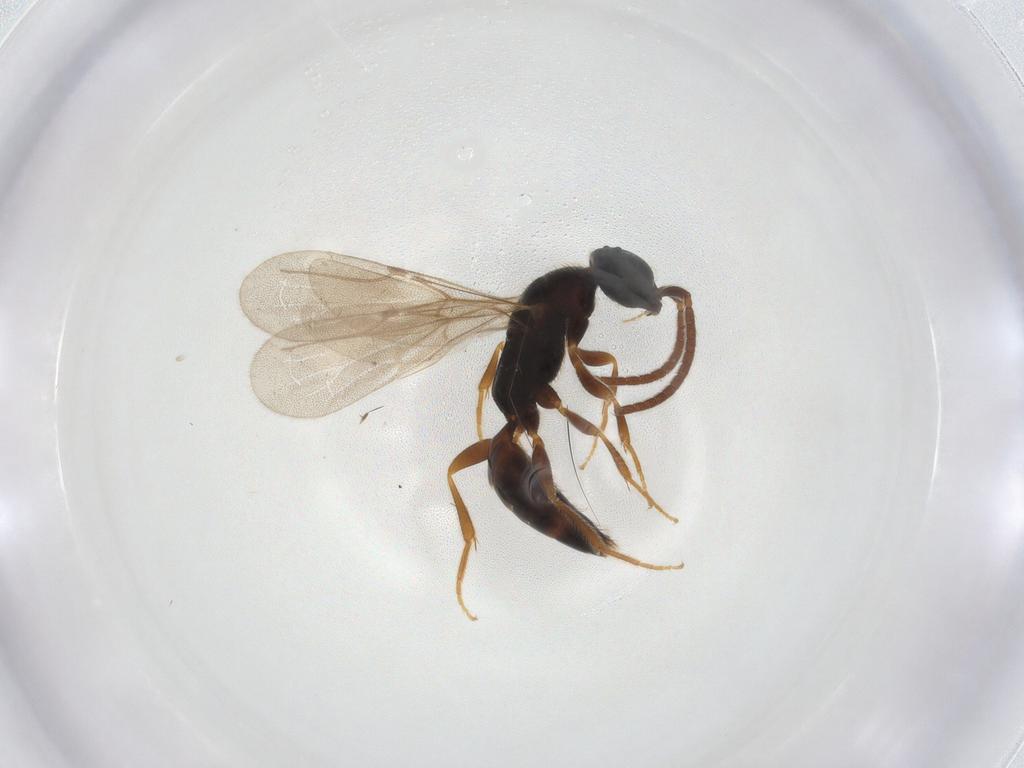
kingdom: Animalia
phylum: Arthropoda
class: Insecta
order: Hymenoptera
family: Bethylidae
